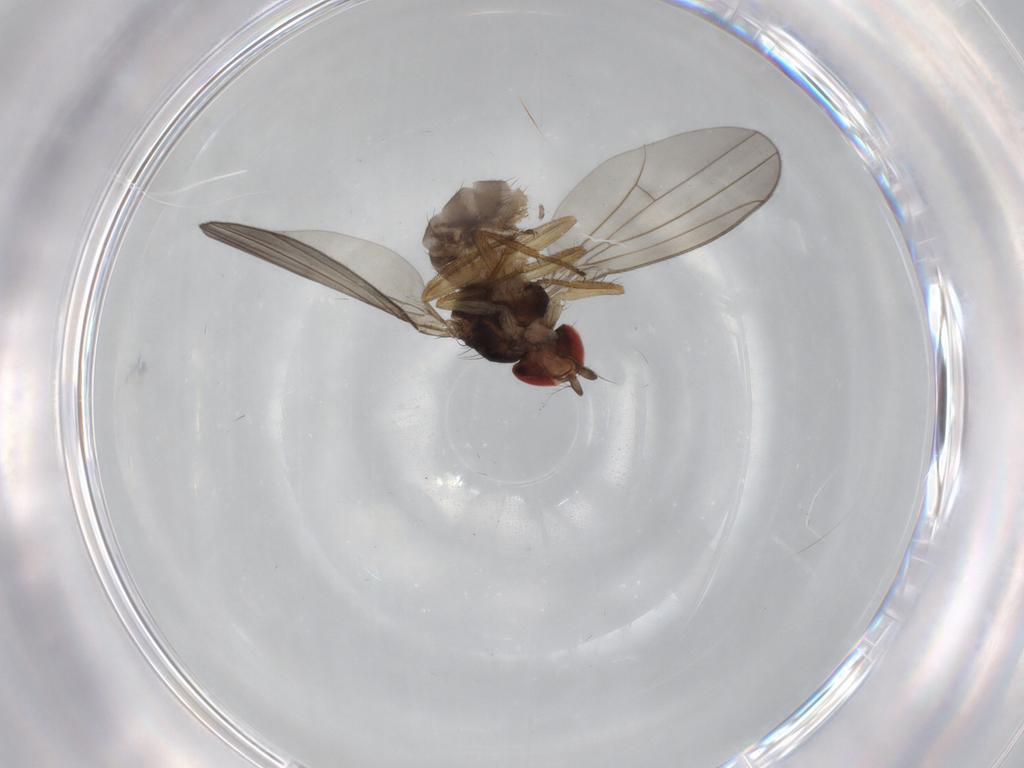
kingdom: Animalia
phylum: Arthropoda
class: Insecta
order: Diptera
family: Drosophilidae
